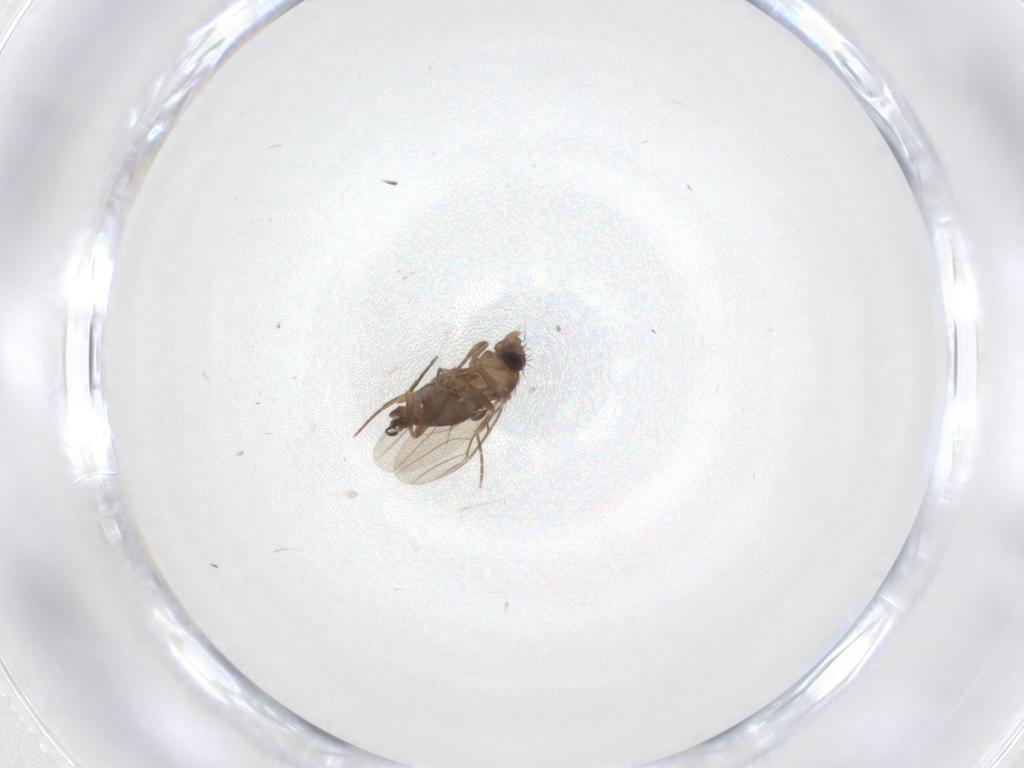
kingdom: Animalia
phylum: Arthropoda
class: Insecta
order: Diptera
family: Phoridae
